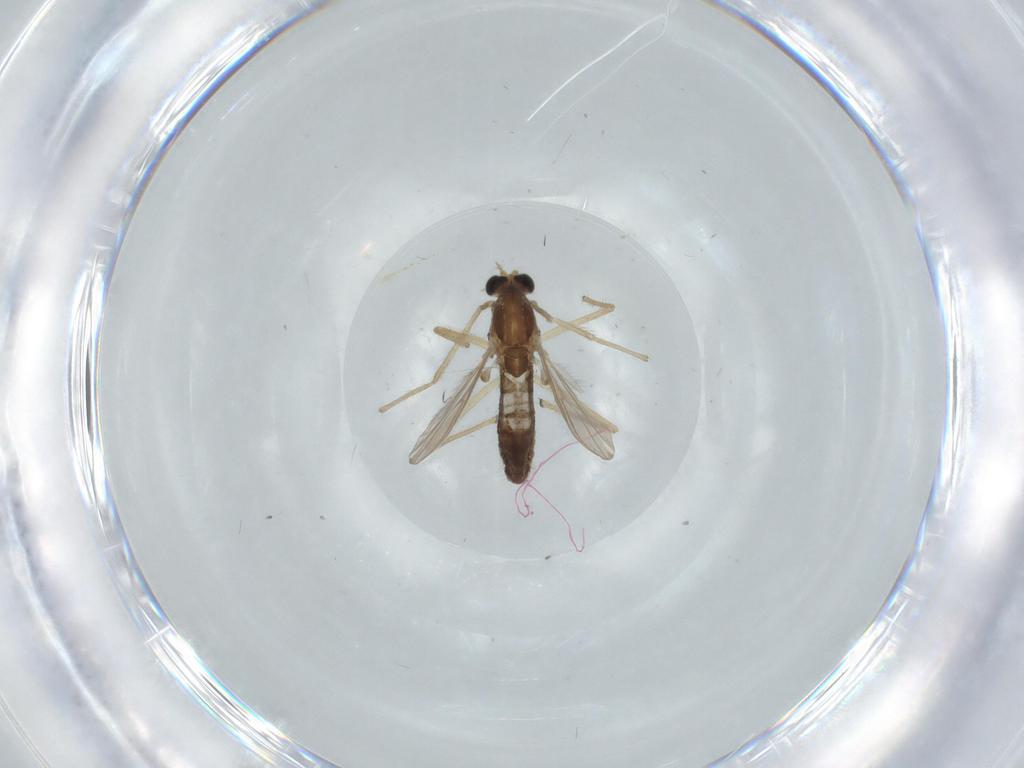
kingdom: Animalia
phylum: Arthropoda
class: Insecta
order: Diptera
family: Chironomidae
